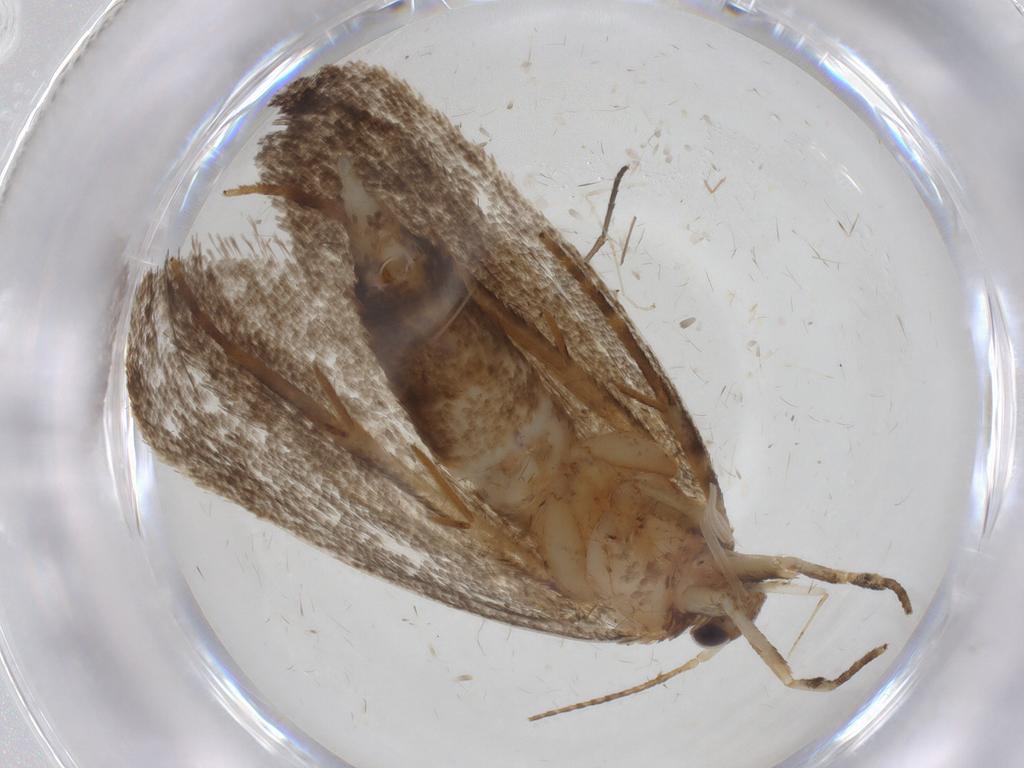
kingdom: Animalia
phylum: Arthropoda
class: Insecta
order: Lepidoptera
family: Oecophoridae
